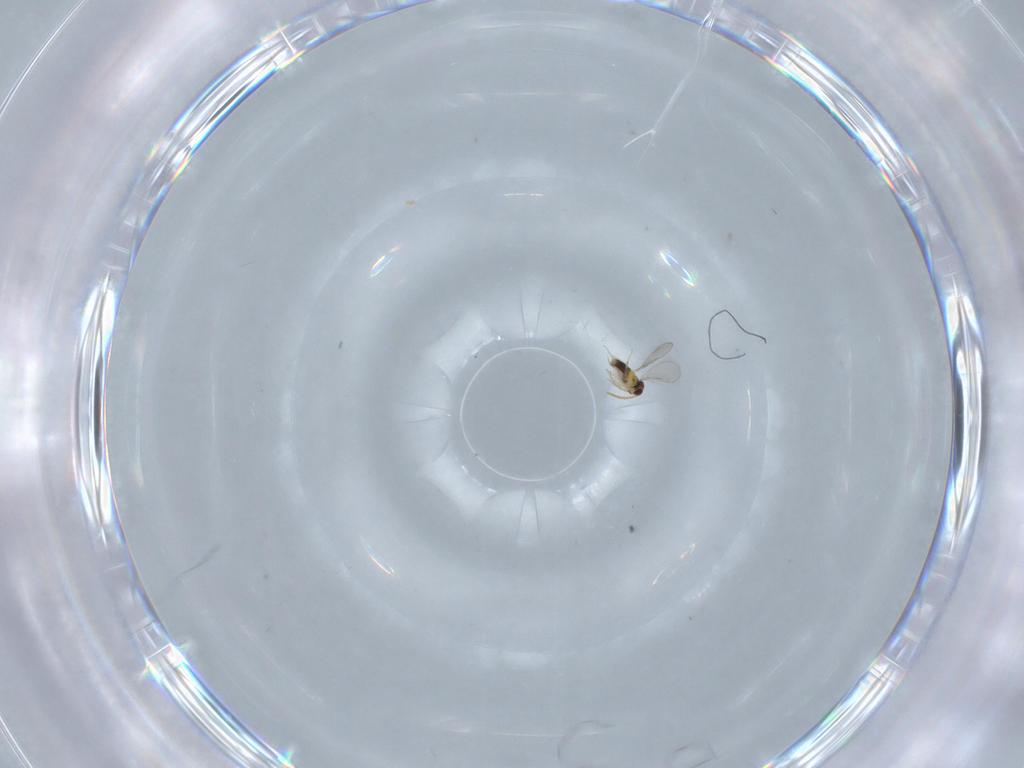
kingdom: Animalia
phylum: Arthropoda
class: Insecta
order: Hymenoptera
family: Aphelinidae
